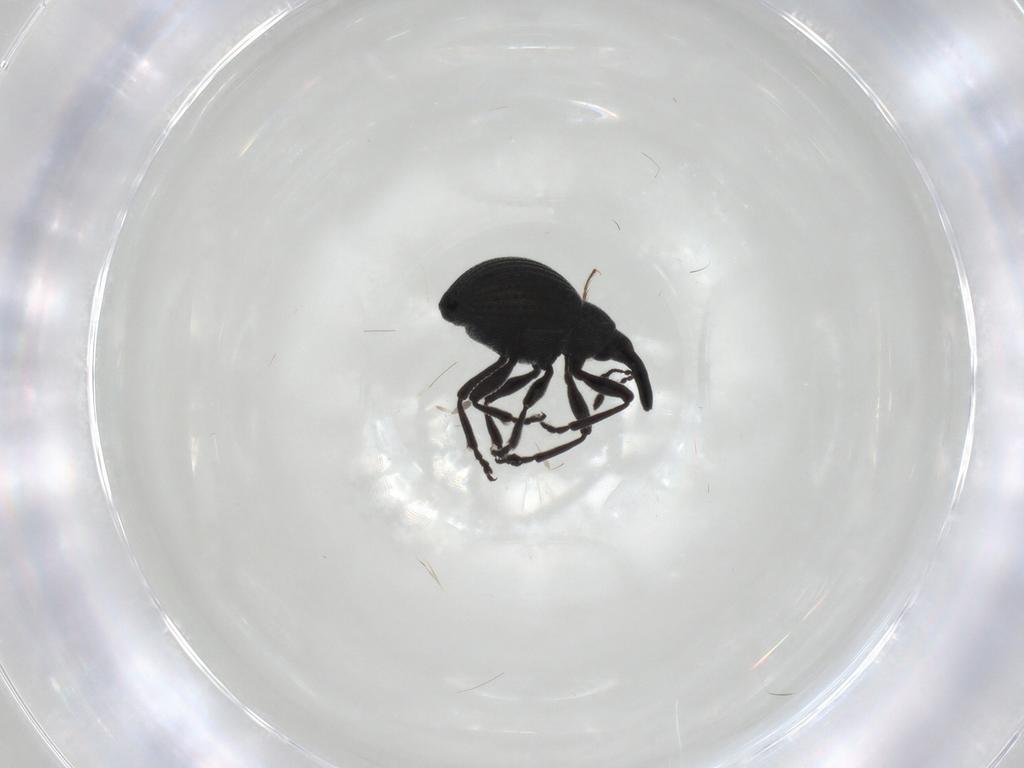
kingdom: Animalia
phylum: Arthropoda
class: Insecta
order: Coleoptera
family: Brentidae
